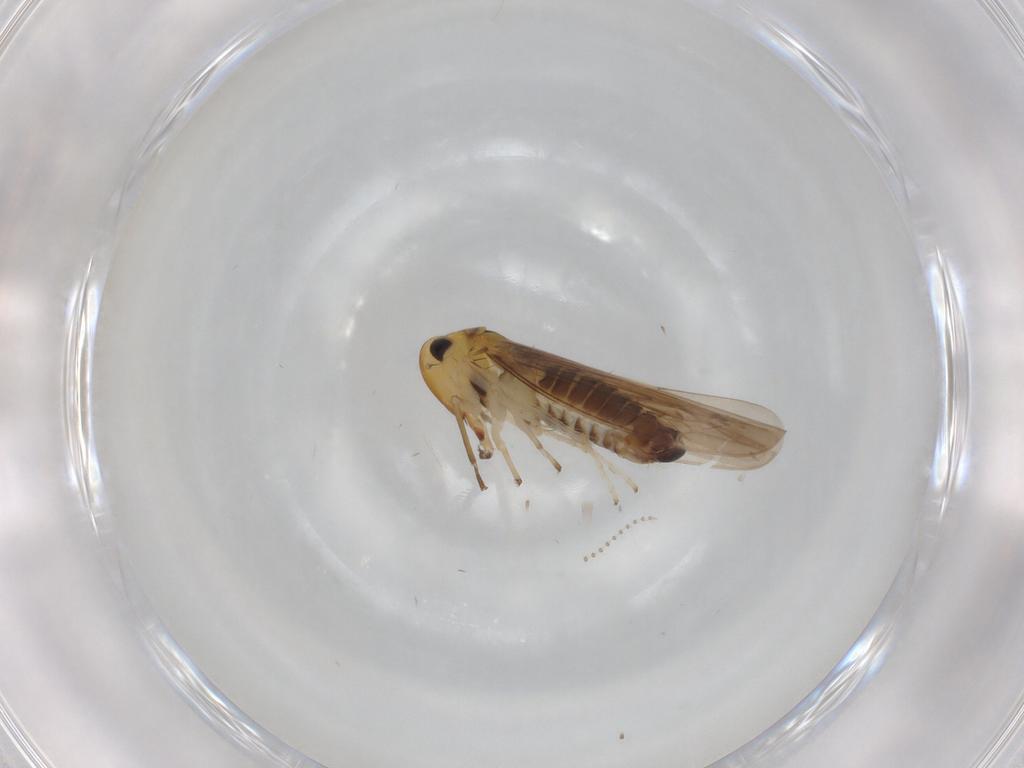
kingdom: Animalia
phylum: Arthropoda
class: Insecta
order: Hemiptera
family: Cicadellidae
